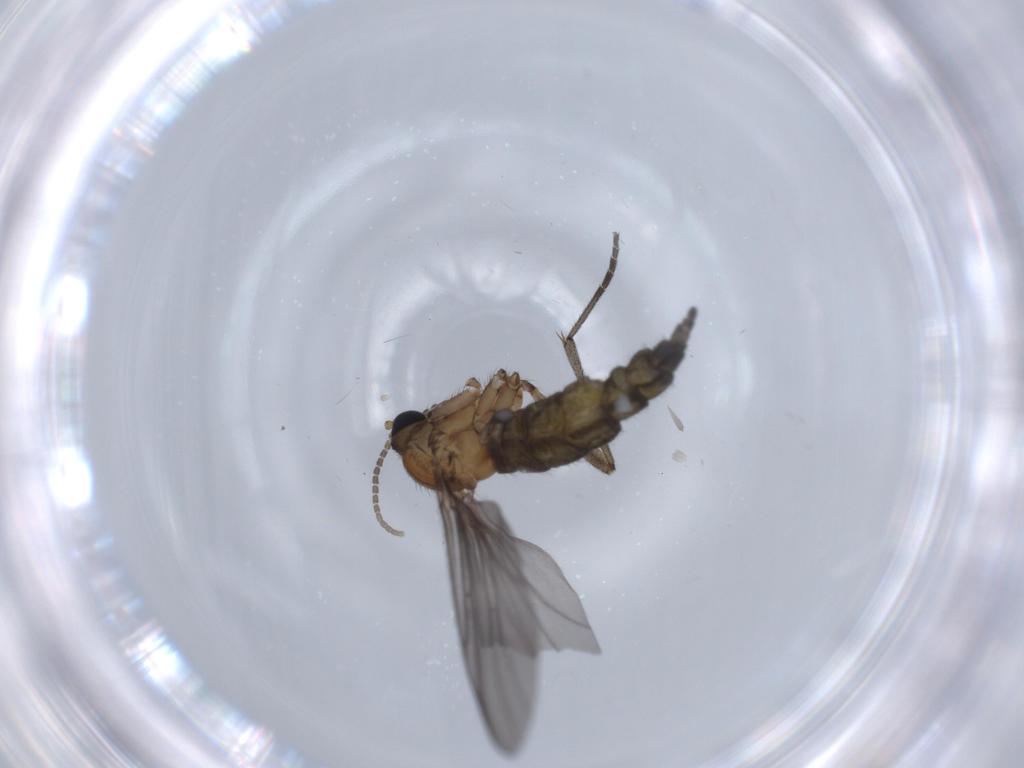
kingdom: Animalia
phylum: Arthropoda
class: Insecta
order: Diptera
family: Sciaridae
